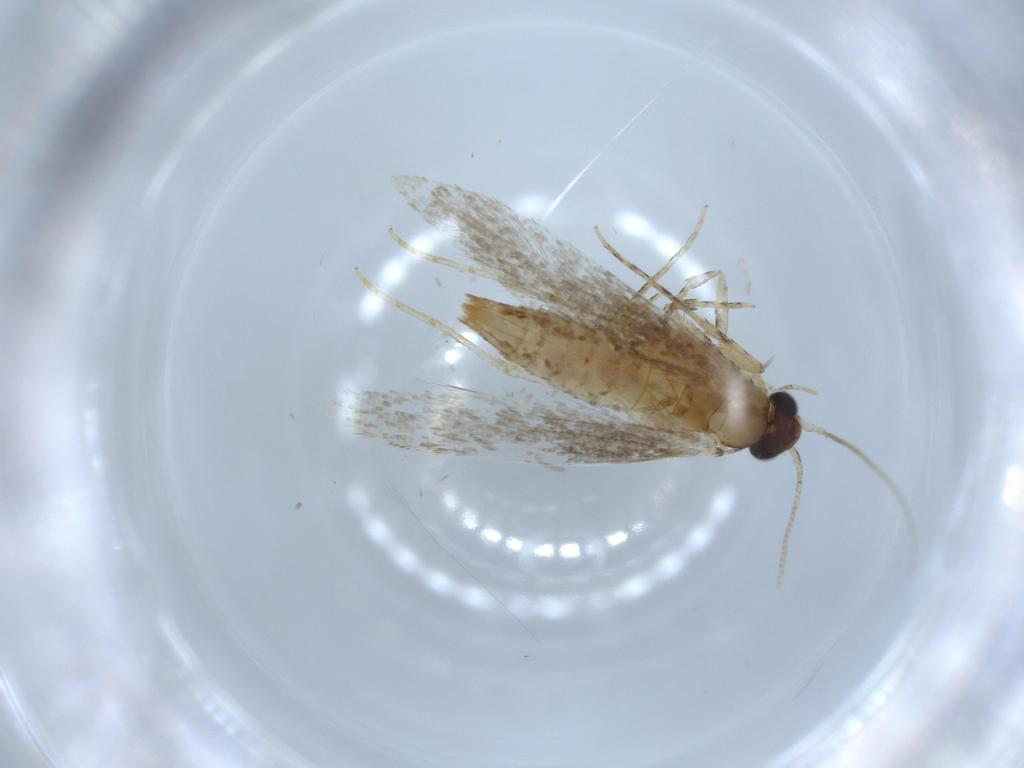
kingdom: Animalia
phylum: Arthropoda
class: Insecta
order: Lepidoptera
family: Tineidae
